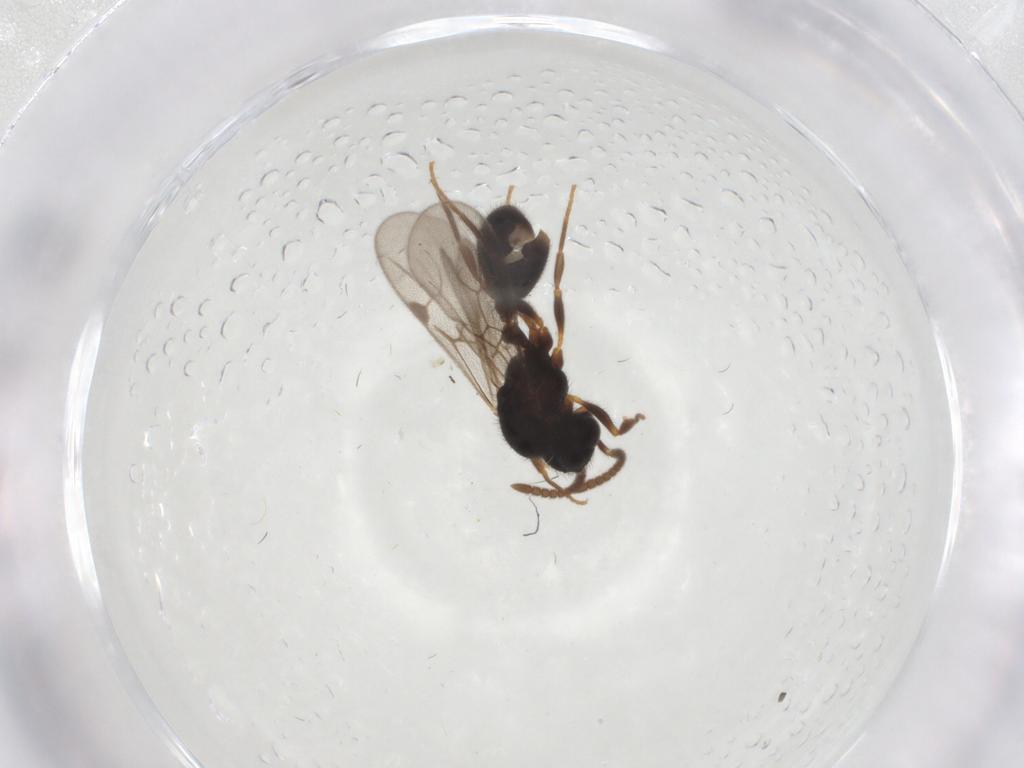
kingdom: Animalia
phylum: Arthropoda
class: Insecta
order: Hymenoptera
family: Formicidae
